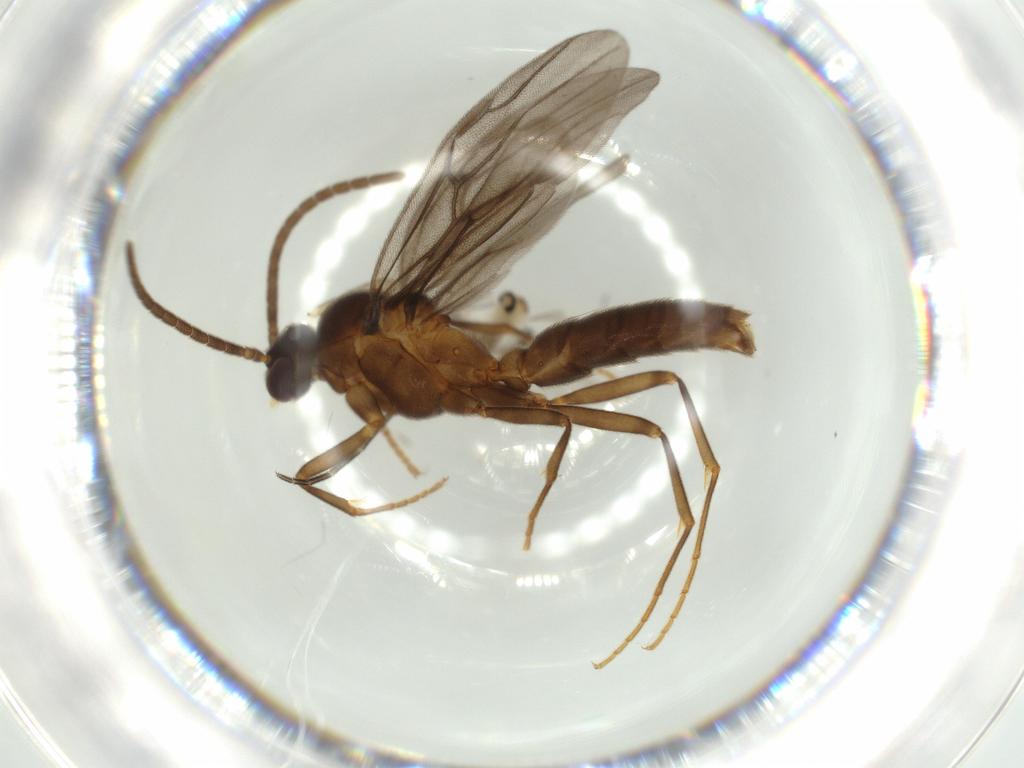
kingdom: Animalia
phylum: Arthropoda
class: Insecta
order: Hymenoptera
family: Formicidae
